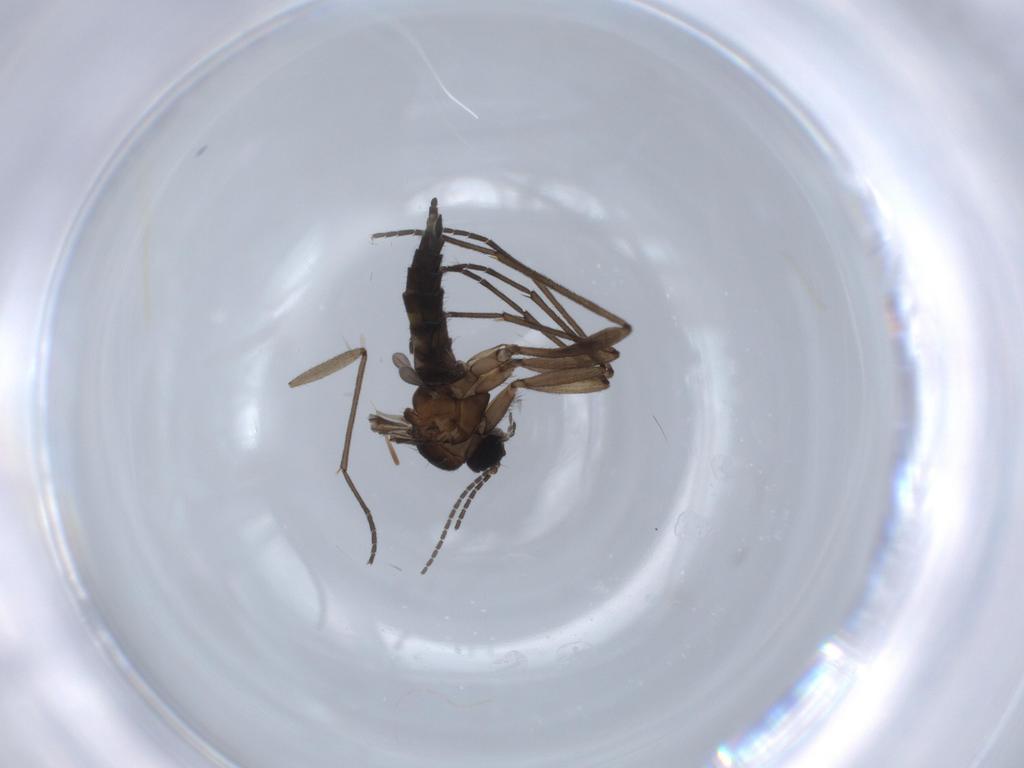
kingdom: Animalia
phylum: Arthropoda
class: Insecta
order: Diptera
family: Sciaridae
